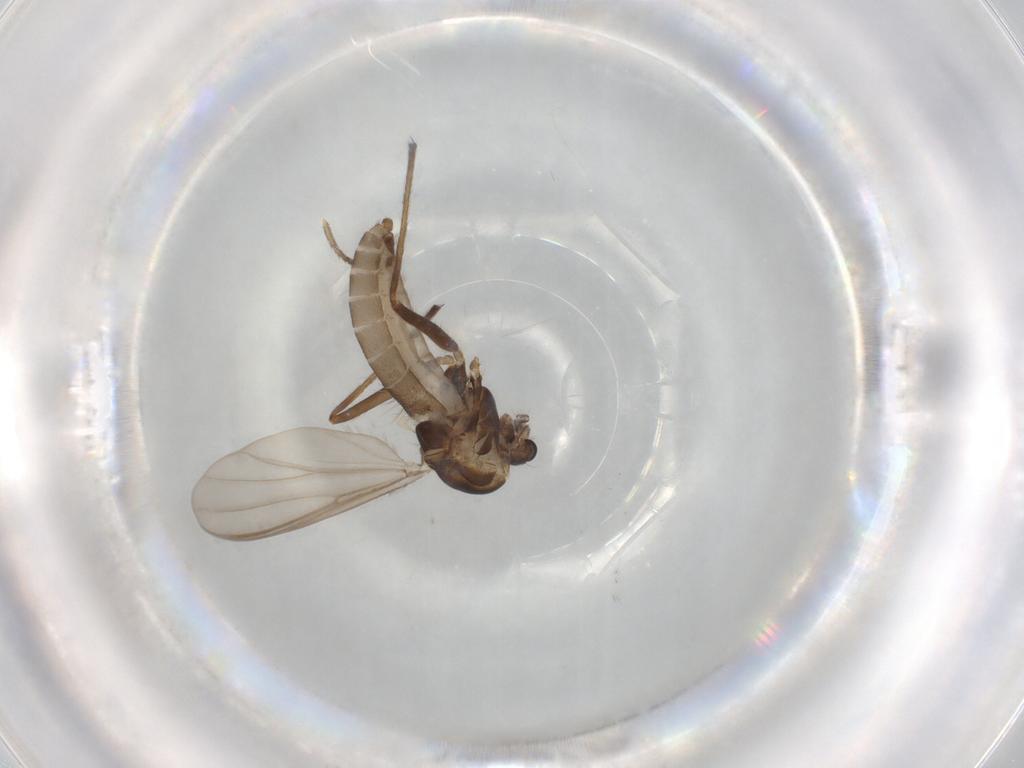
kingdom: Animalia
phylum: Arthropoda
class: Insecta
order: Diptera
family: Chironomidae
